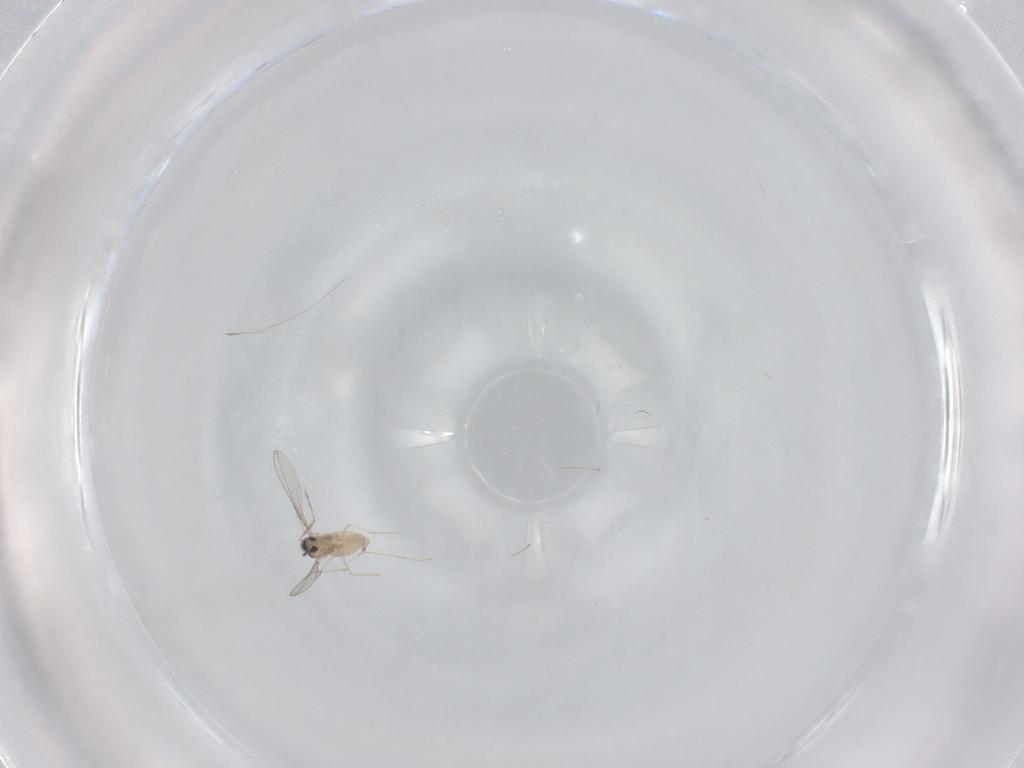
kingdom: Animalia
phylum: Arthropoda
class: Insecta
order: Diptera
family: Cecidomyiidae
